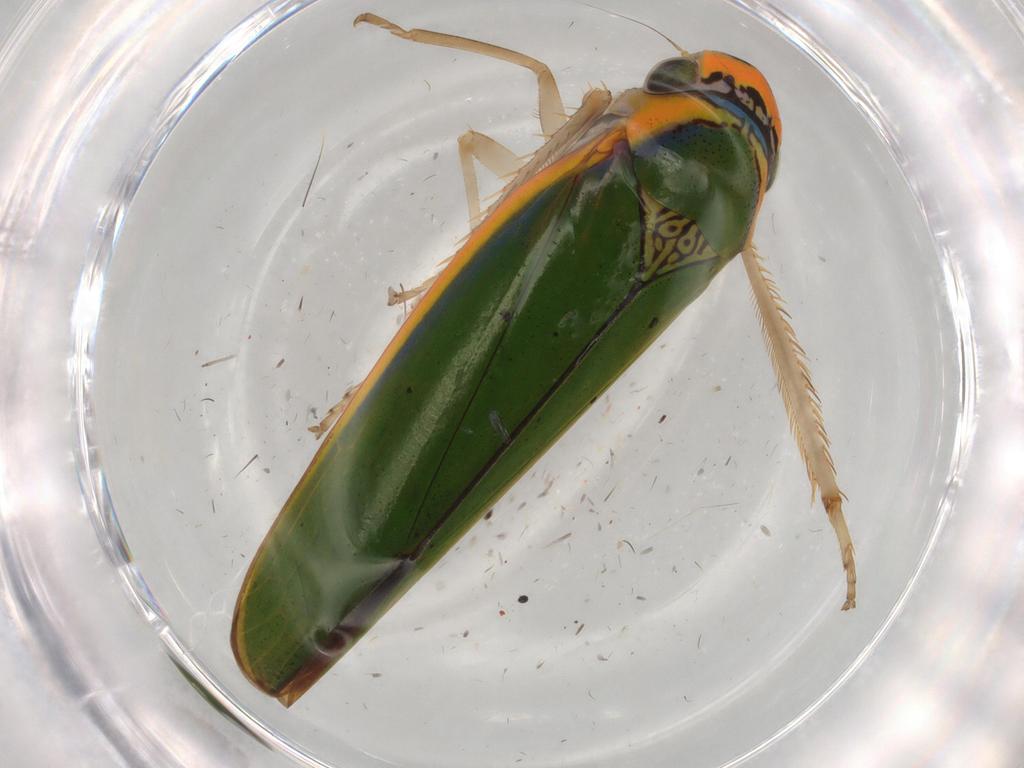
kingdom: Animalia
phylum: Arthropoda
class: Insecta
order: Hemiptera
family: Cicadellidae
